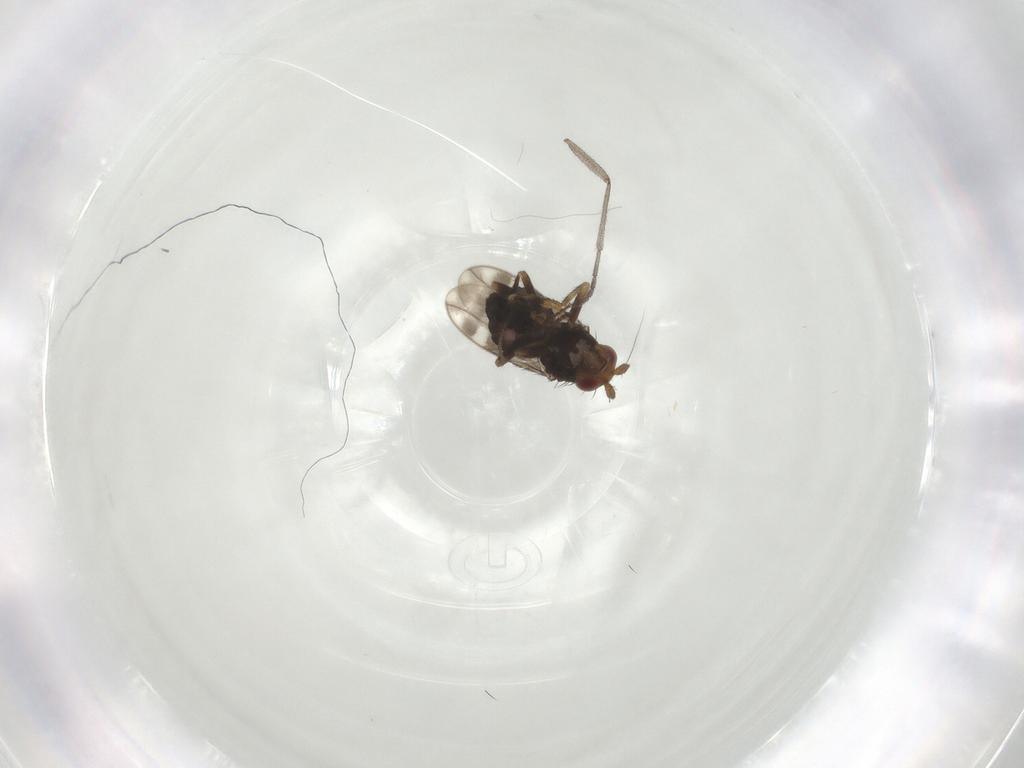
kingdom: Animalia
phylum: Arthropoda
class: Insecta
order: Diptera
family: Sphaeroceridae
